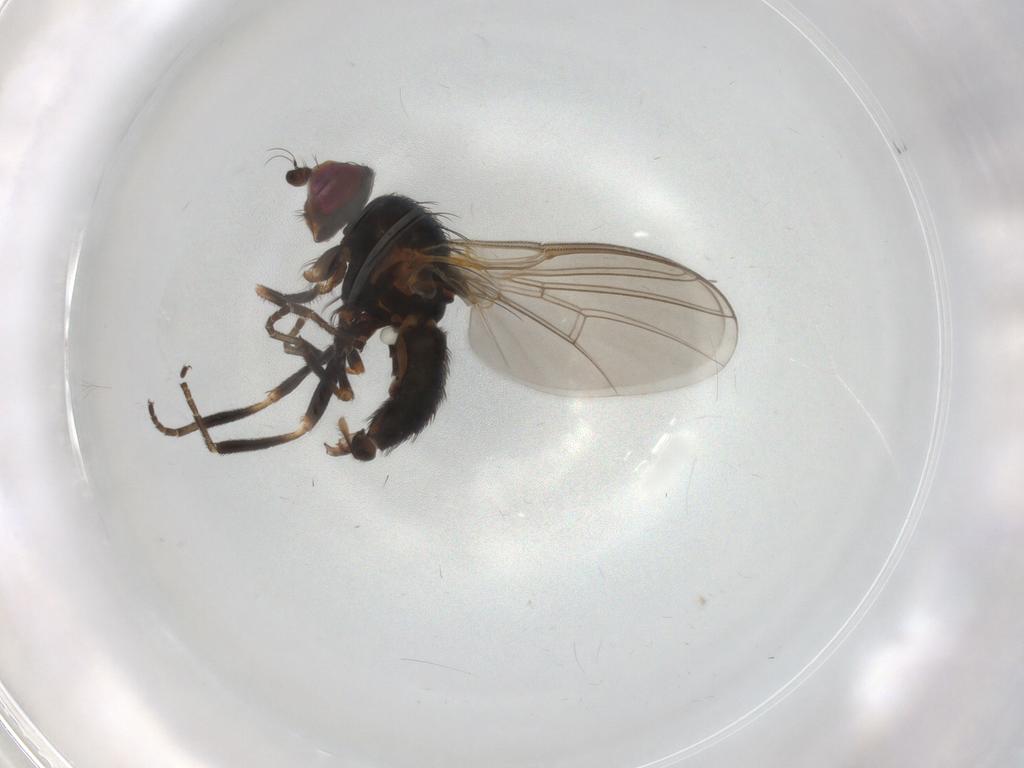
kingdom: Animalia
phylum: Arthropoda
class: Insecta
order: Diptera
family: Agromyzidae
